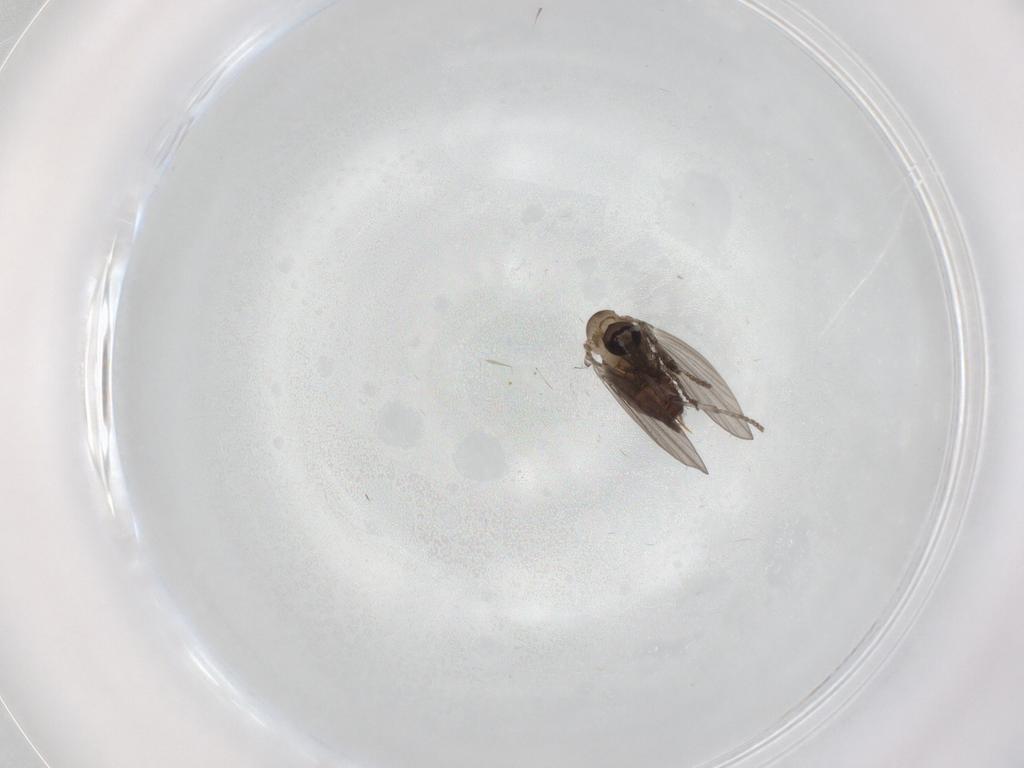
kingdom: Animalia
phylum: Arthropoda
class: Insecta
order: Diptera
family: Psychodidae
